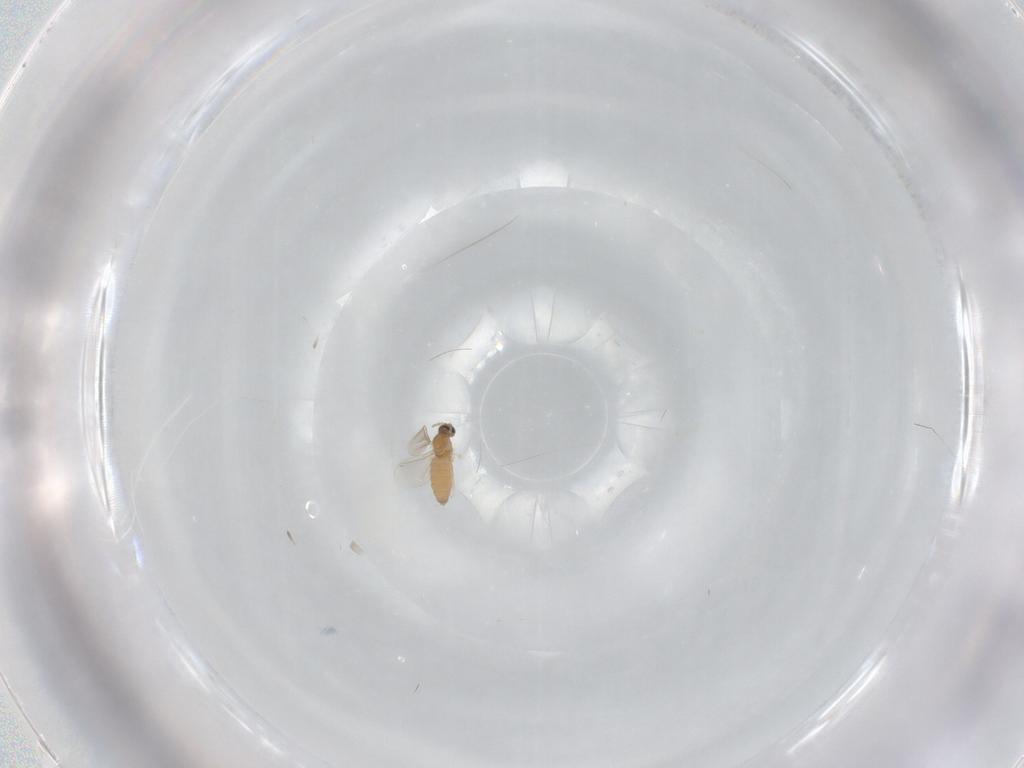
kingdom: Animalia
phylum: Arthropoda
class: Insecta
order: Diptera
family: Cecidomyiidae
